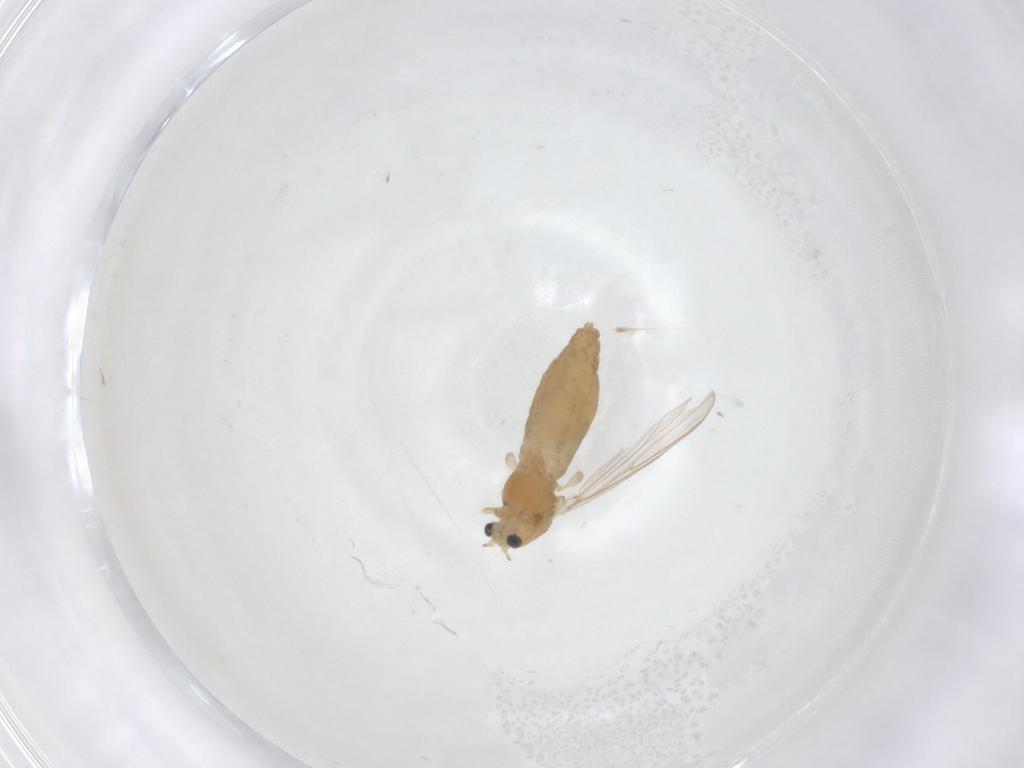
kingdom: Animalia
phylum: Arthropoda
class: Insecta
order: Diptera
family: Chironomidae
